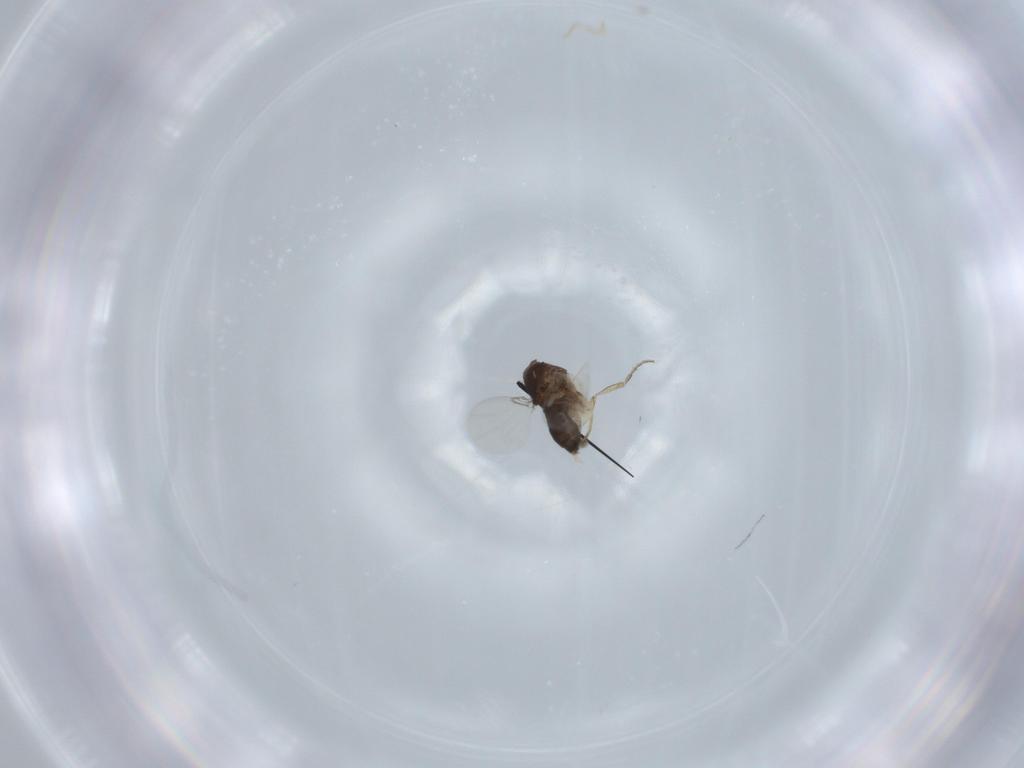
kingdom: Animalia
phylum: Arthropoda
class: Insecta
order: Diptera
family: Phoridae
